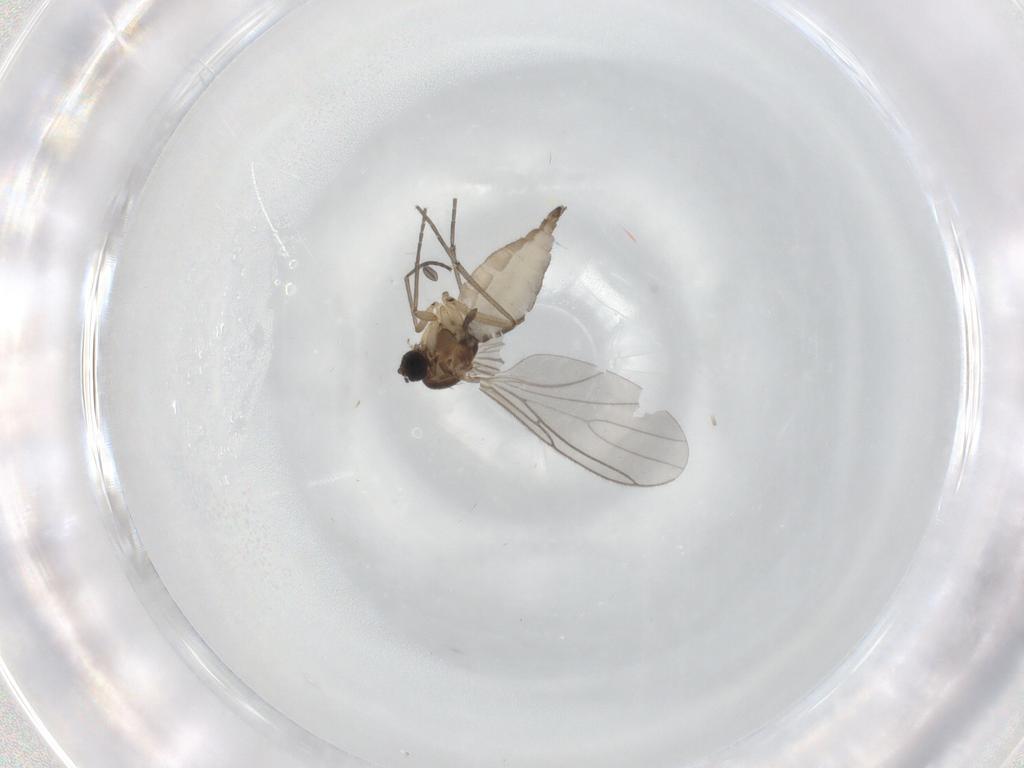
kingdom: Animalia
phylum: Arthropoda
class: Insecta
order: Diptera
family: Sciaridae
